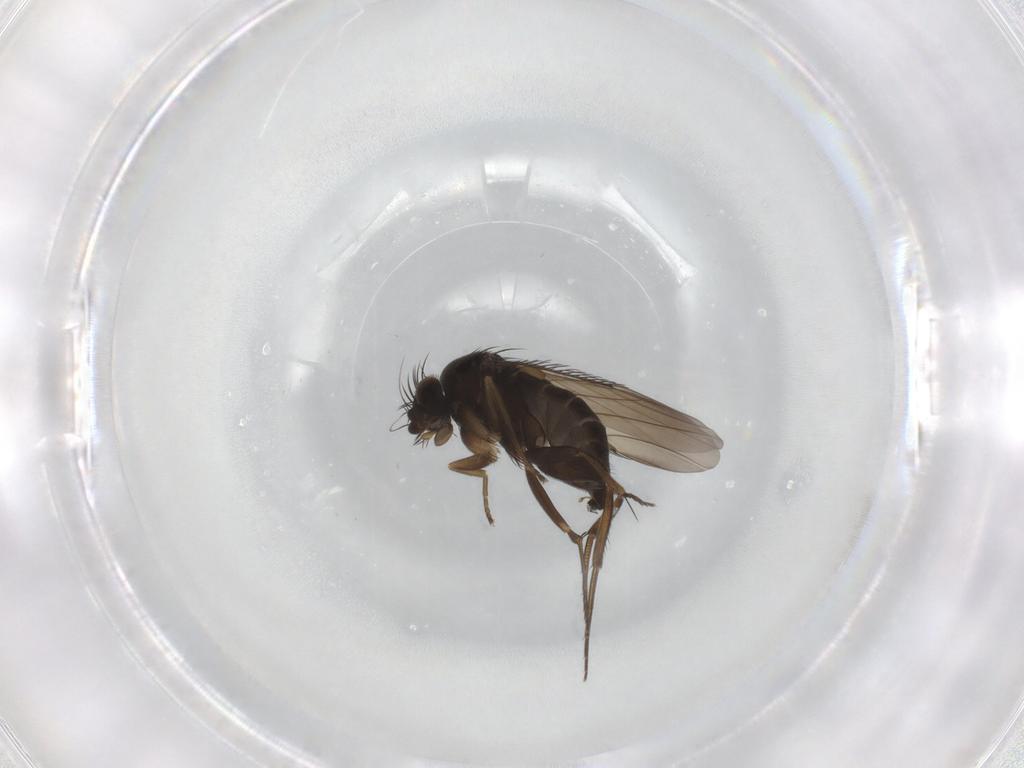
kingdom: Animalia
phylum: Arthropoda
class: Insecta
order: Diptera
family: Phoridae
